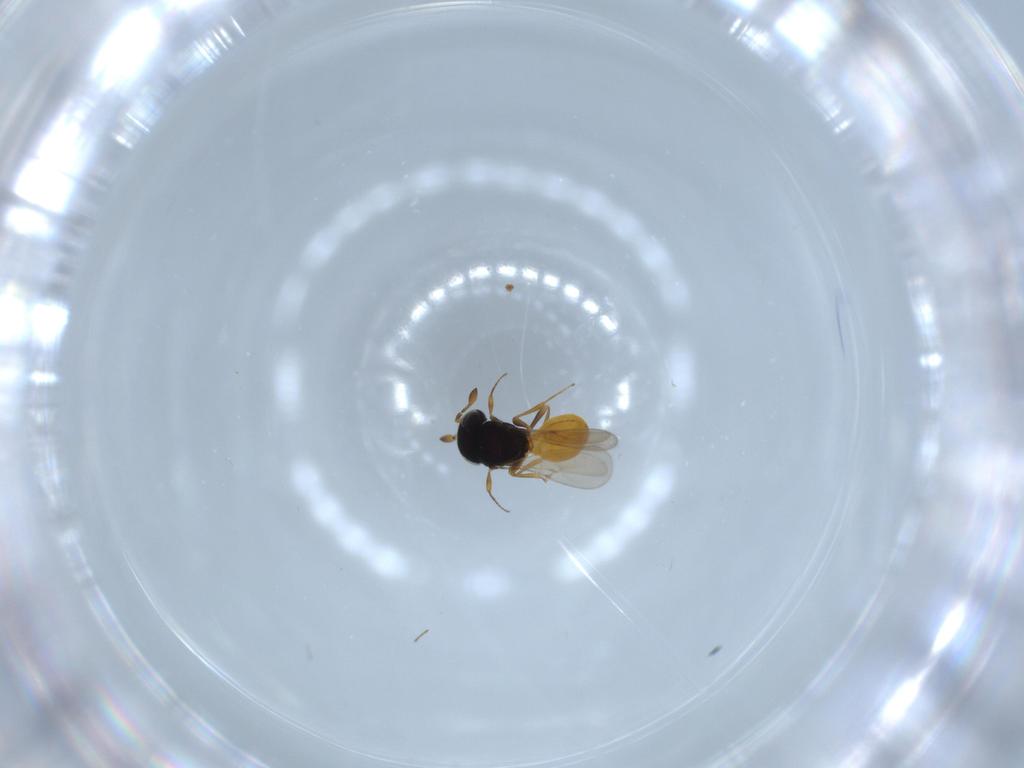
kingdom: Animalia
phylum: Arthropoda
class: Insecta
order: Hymenoptera
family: Scelionidae
